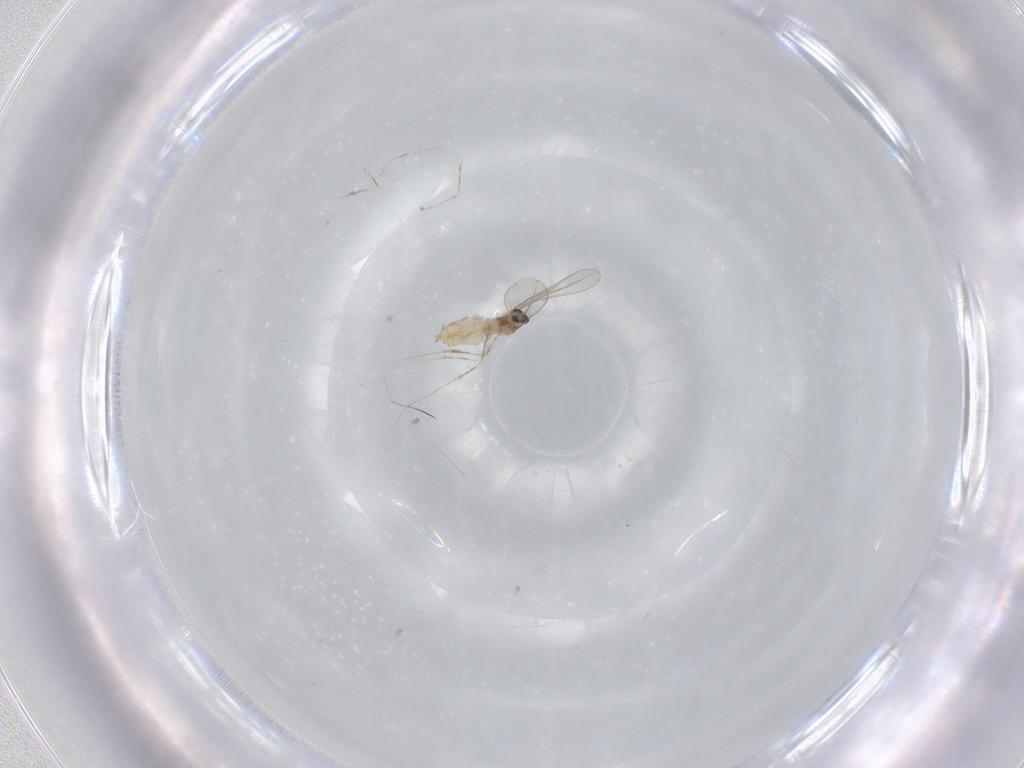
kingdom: Animalia
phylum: Arthropoda
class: Insecta
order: Diptera
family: Cecidomyiidae
